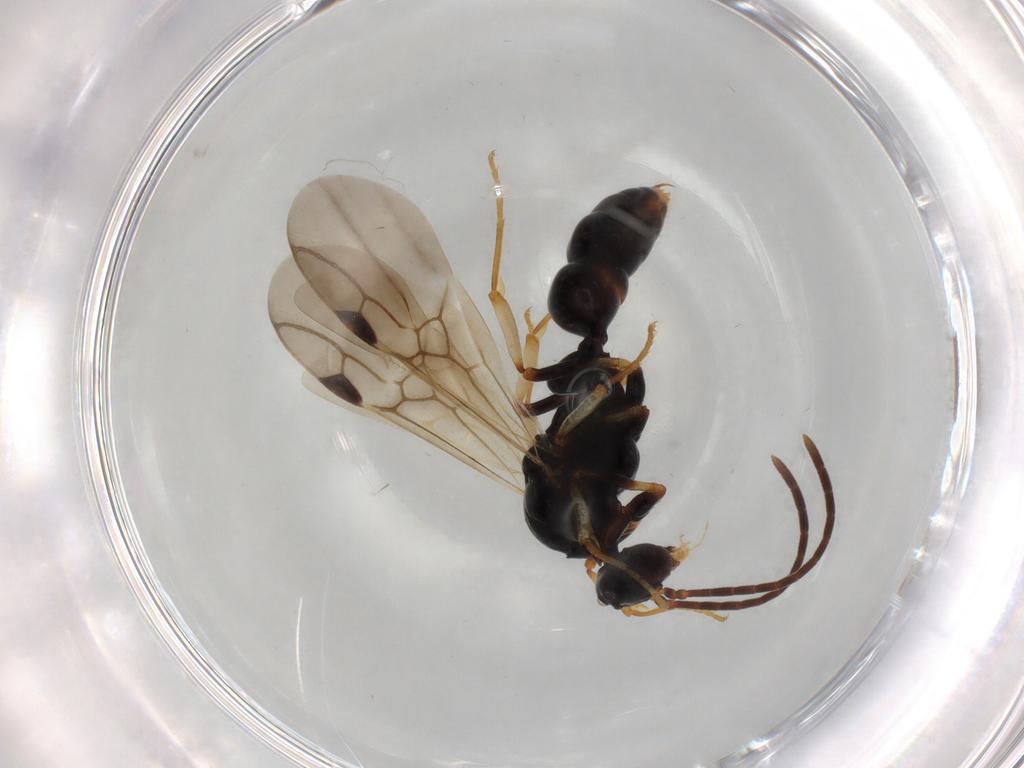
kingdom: Animalia
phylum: Arthropoda
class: Insecta
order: Hymenoptera
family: Formicidae
